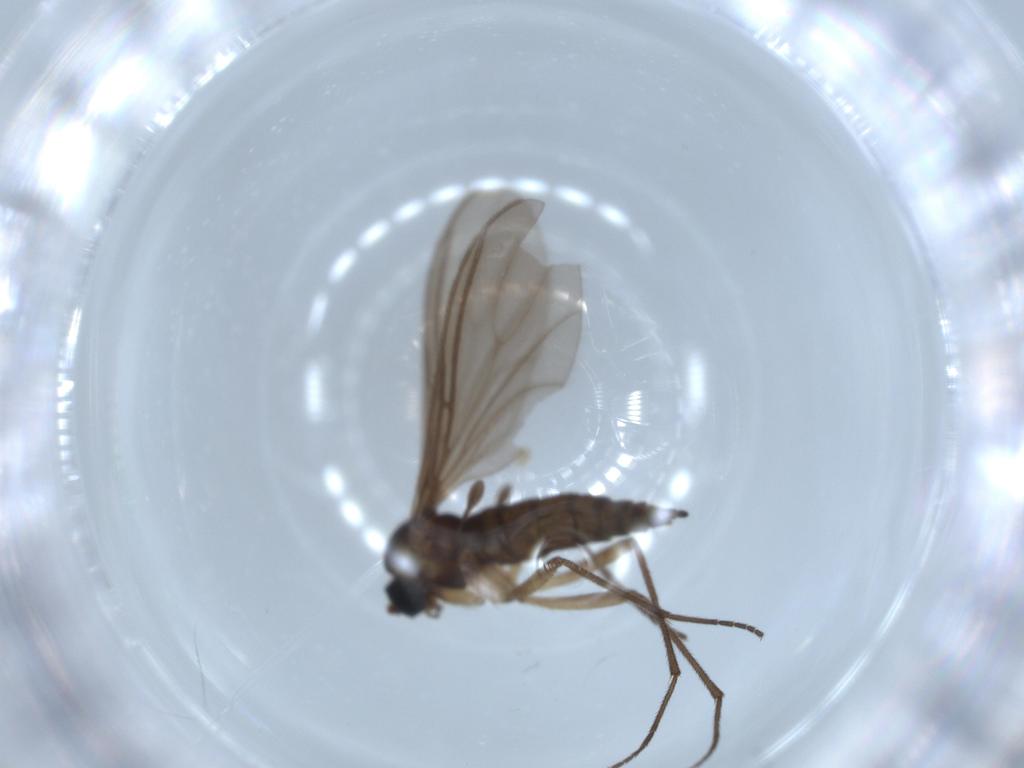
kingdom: Animalia
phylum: Arthropoda
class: Insecta
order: Diptera
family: Sciaridae
